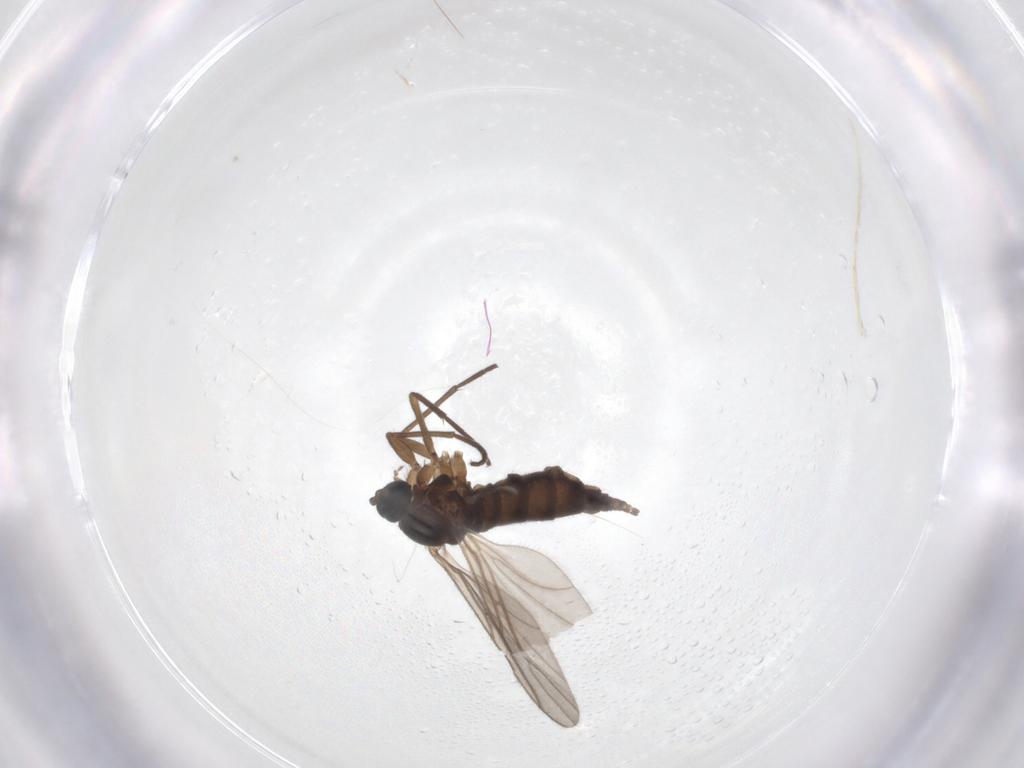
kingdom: Animalia
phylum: Arthropoda
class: Insecta
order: Diptera
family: Sciaridae
